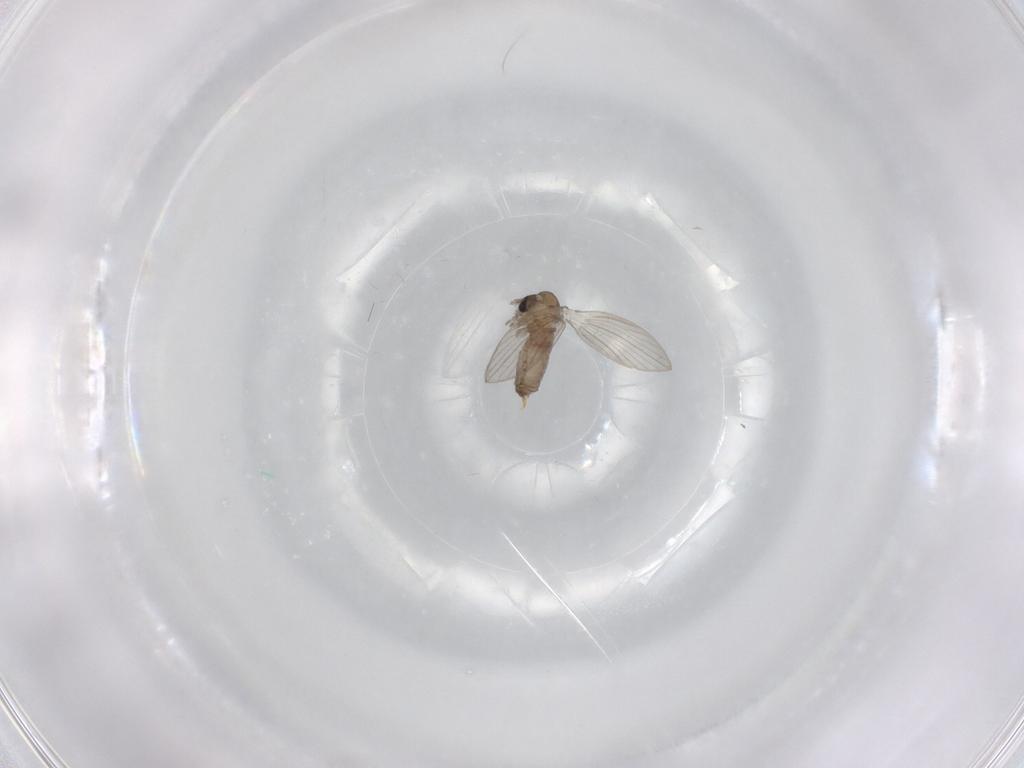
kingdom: Animalia
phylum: Arthropoda
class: Insecta
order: Diptera
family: Psychodidae
